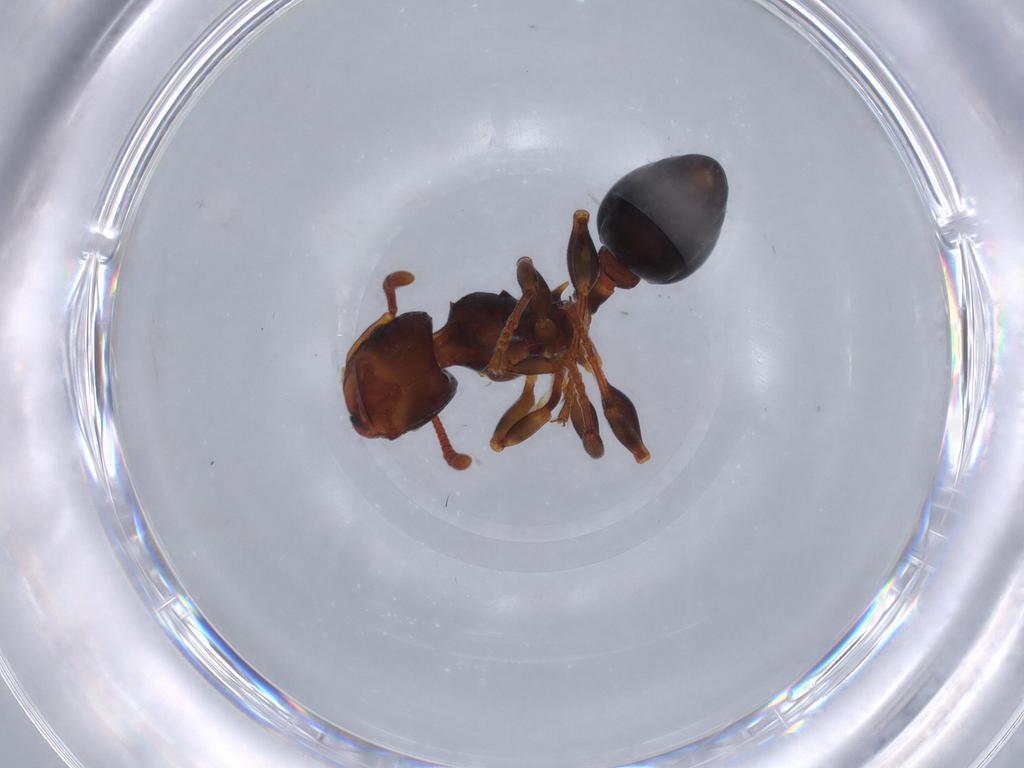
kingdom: Animalia
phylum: Arthropoda
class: Insecta
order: Hymenoptera
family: Formicidae
